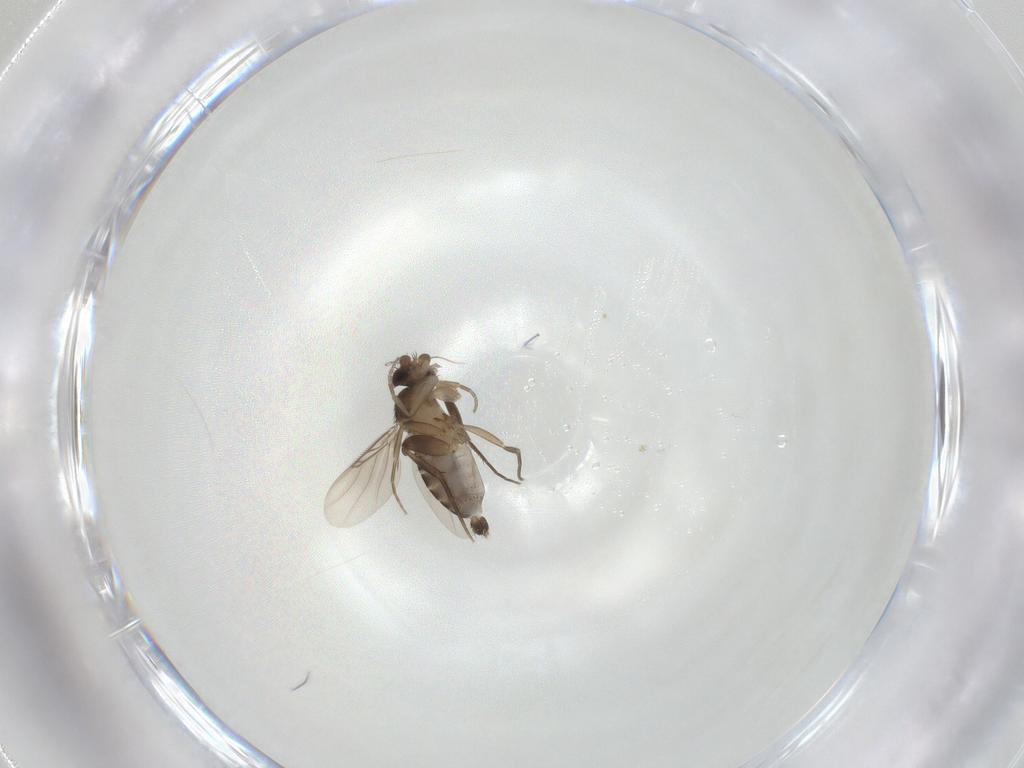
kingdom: Animalia
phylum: Arthropoda
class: Insecta
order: Diptera
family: Phoridae
